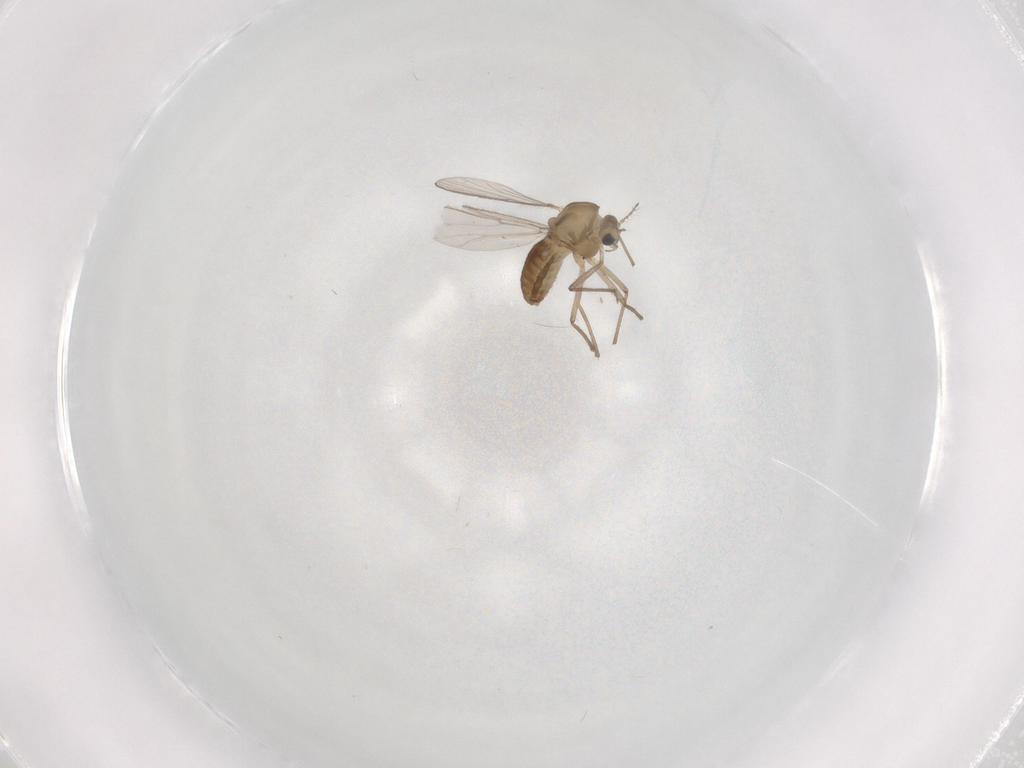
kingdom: Animalia
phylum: Arthropoda
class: Insecta
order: Diptera
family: Chironomidae
